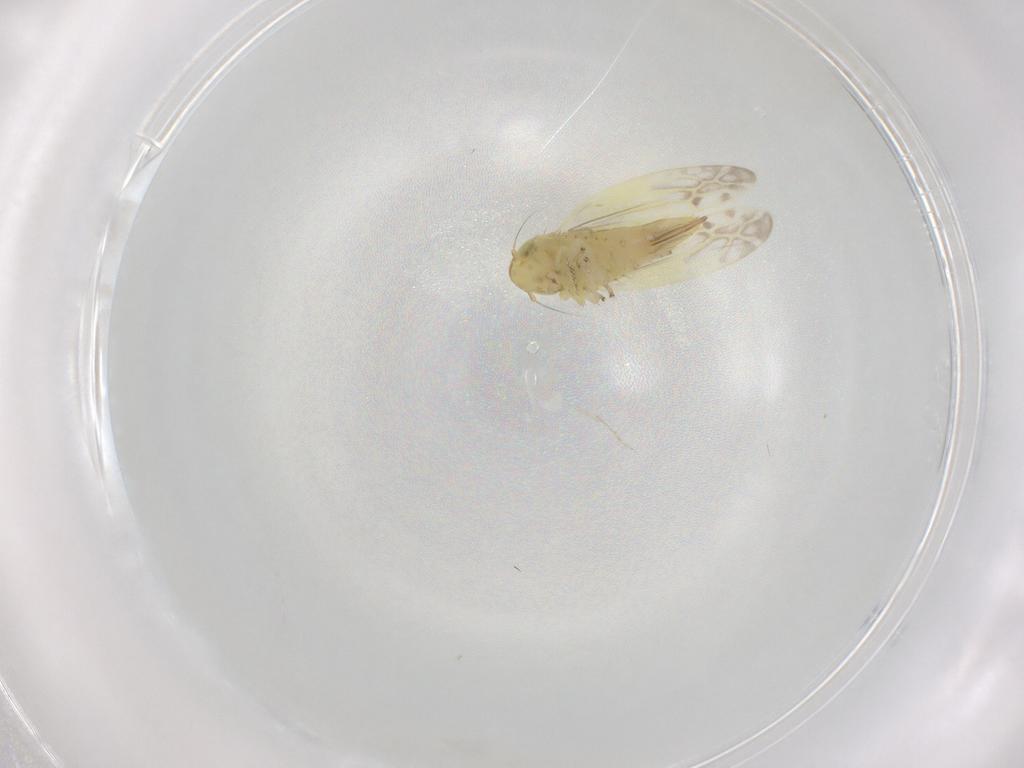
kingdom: Animalia
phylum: Arthropoda
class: Insecta
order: Hemiptera
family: Cicadellidae
